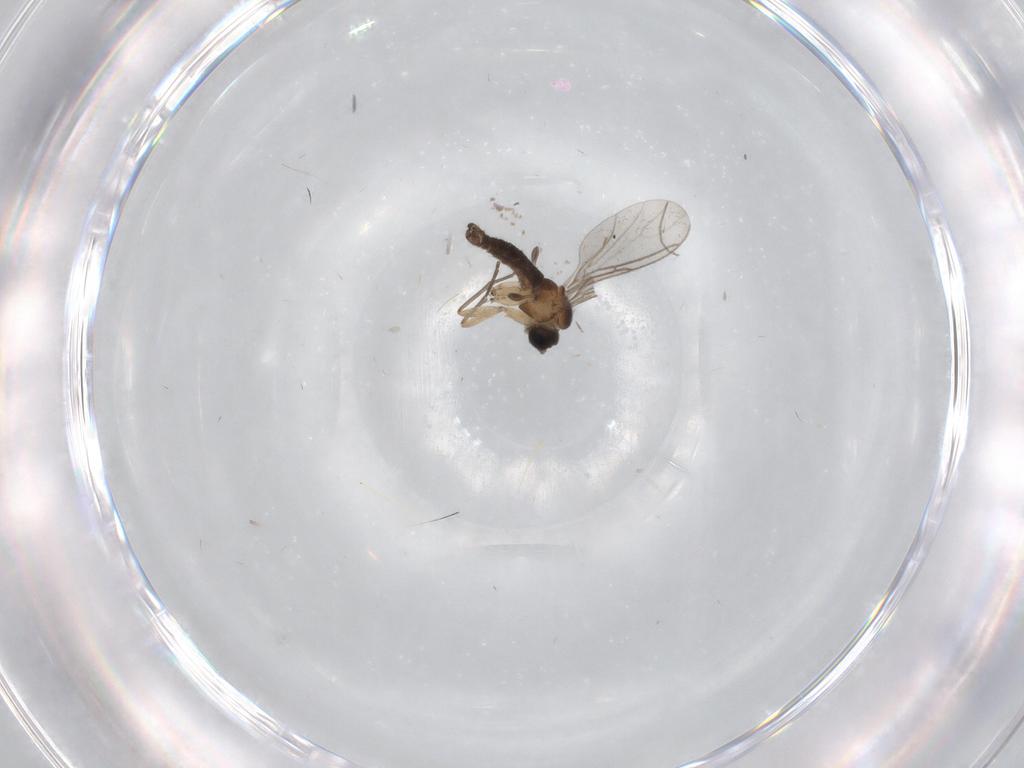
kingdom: Animalia
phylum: Arthropoda
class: Insecta
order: Diptera
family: Sciaridae
